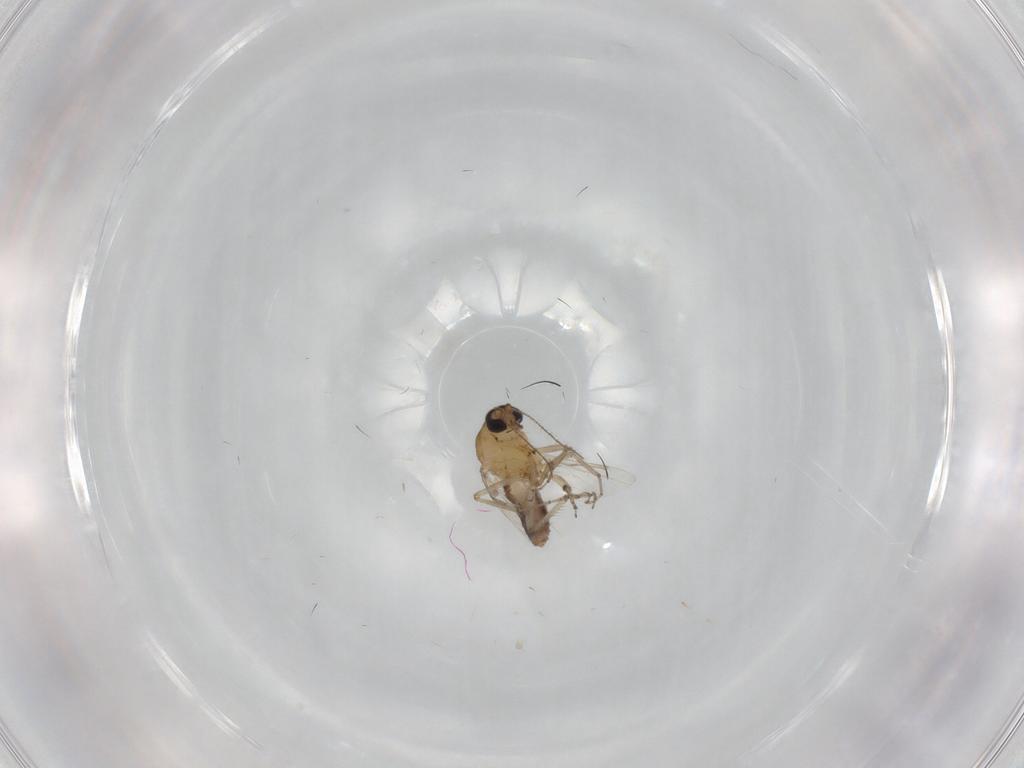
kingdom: Animalia
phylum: Arthropoda
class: Insecta
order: Diptera
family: Ceratopogonidae
